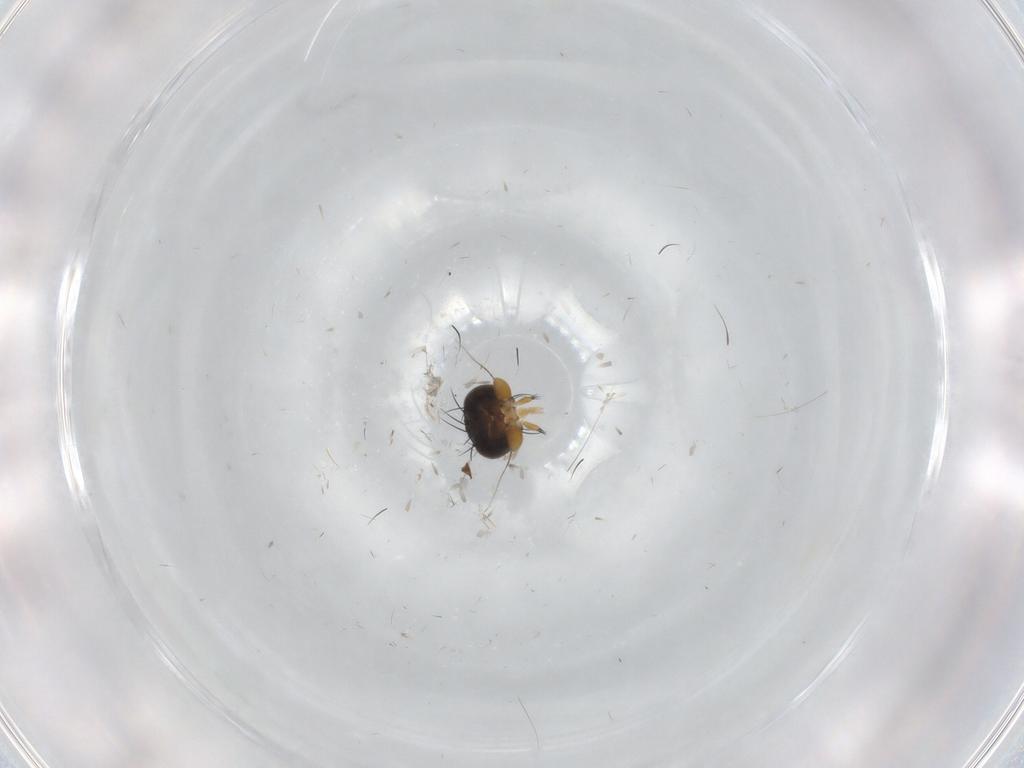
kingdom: Animalia
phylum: Arthropoda
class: Insecta
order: Diptera
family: Phoridae
